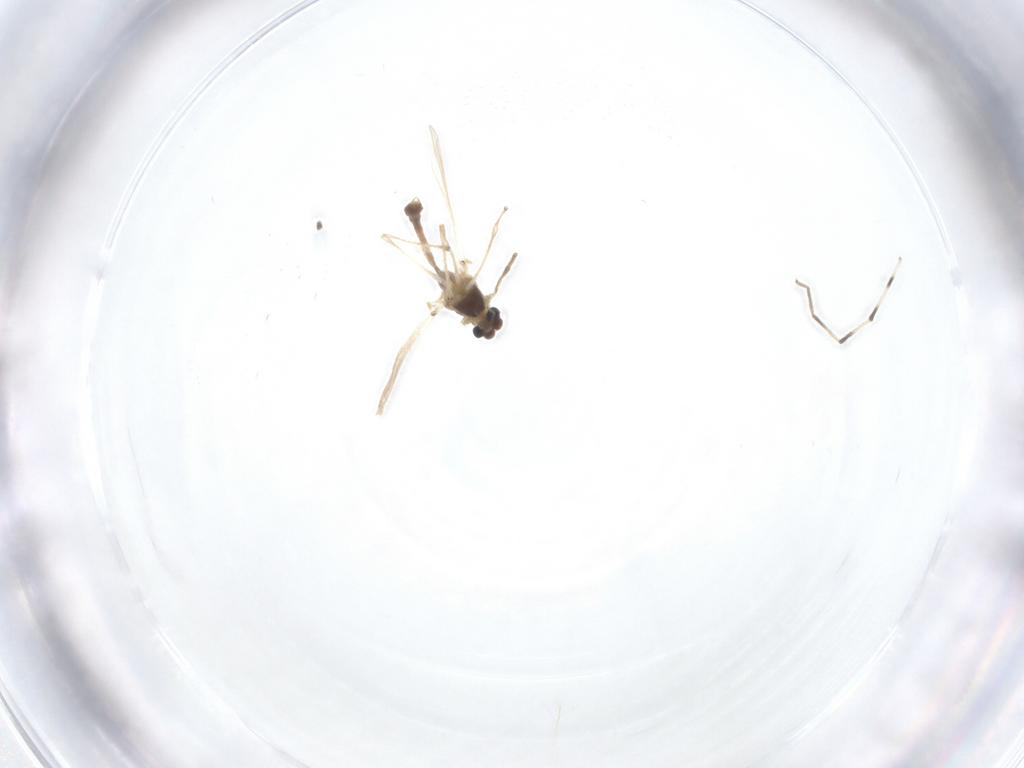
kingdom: Animalia
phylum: Arthropoda
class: Insecta
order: Diptera
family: Chironomidae
